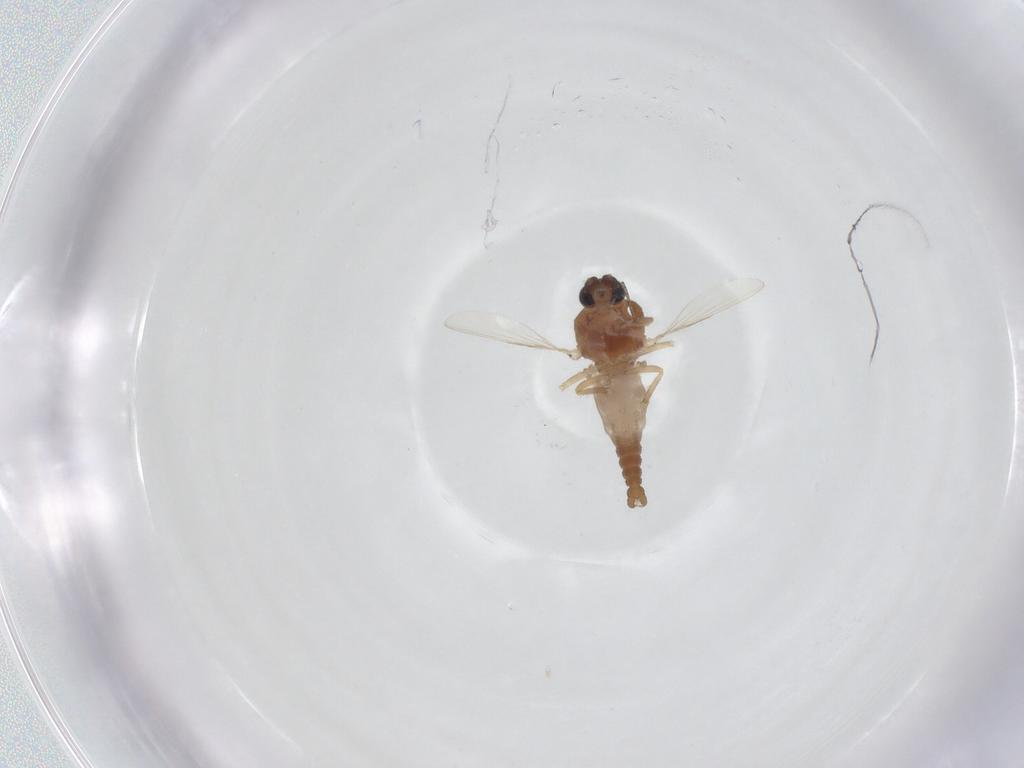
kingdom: Animalia
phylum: Arthropoda
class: Insecta
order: Diptera
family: Ceratopogonidae
